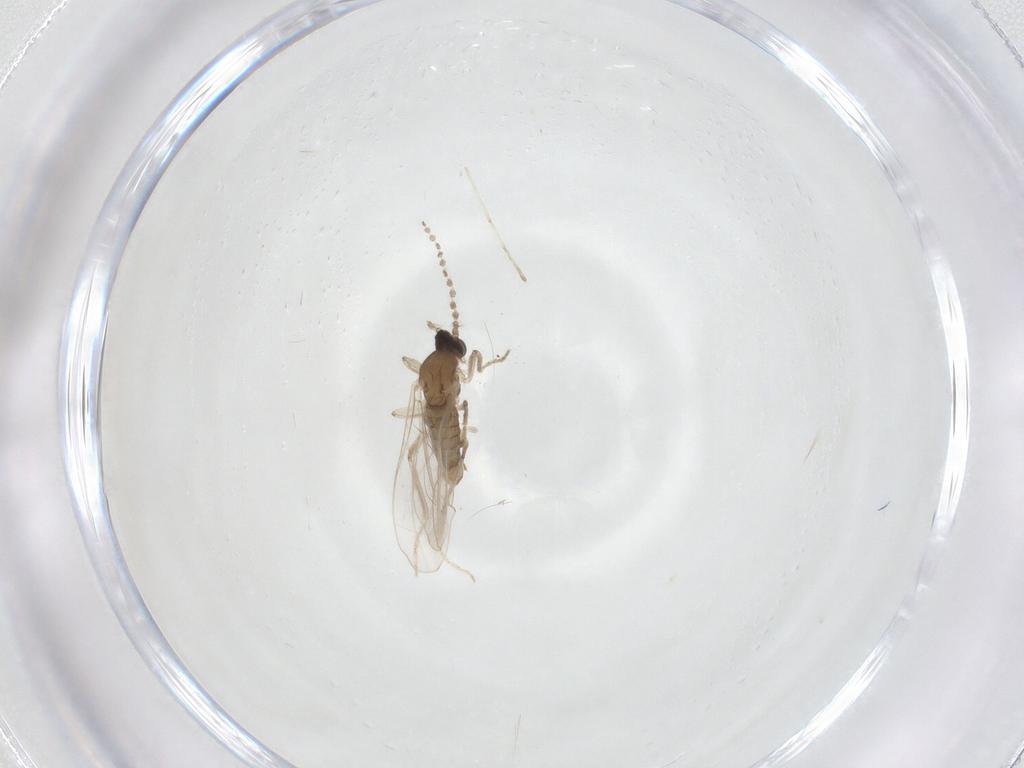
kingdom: Animalia
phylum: Arthropoda
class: Insecta
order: Diptera
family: Cecidomyiidae
